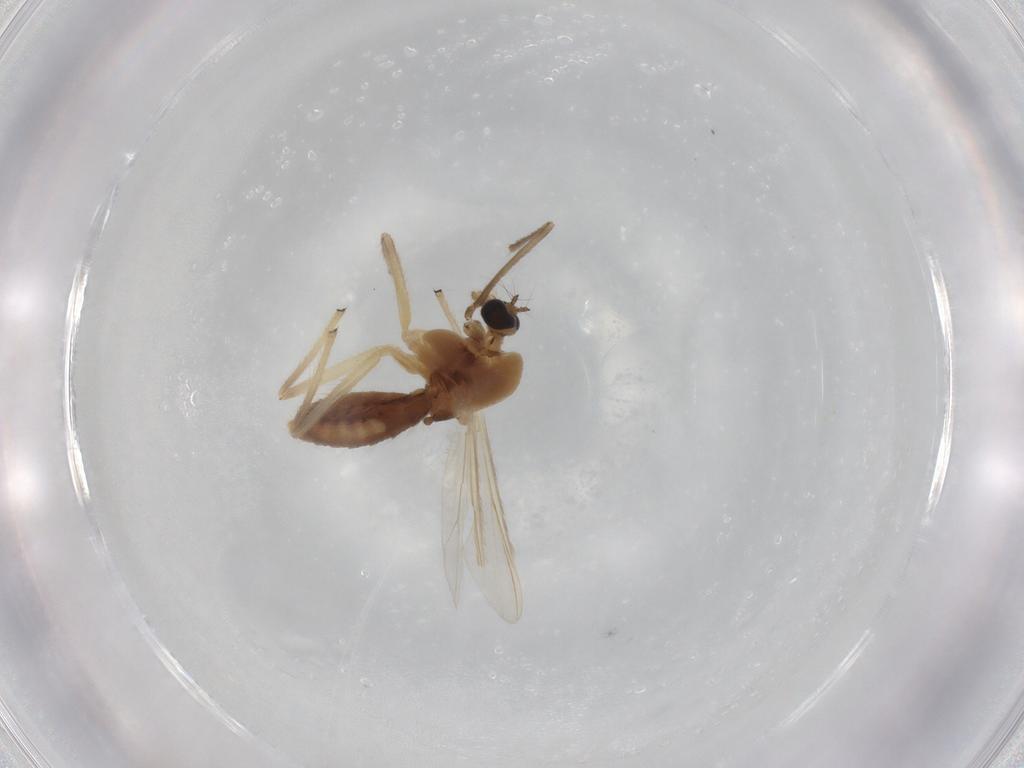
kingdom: Animalia
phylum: Arthropoda
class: Insecta
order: Diptera
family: Chironomidae
